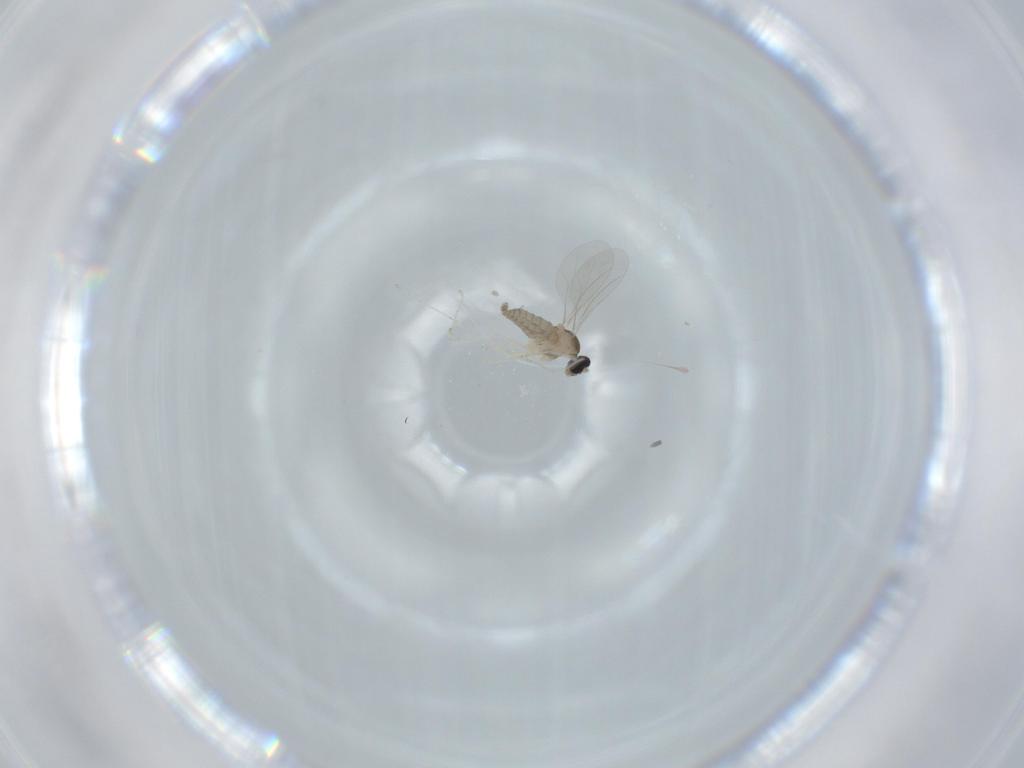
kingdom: Animalia
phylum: Arthropoda
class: Insecta
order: Diptera
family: Cecidomyiidae
